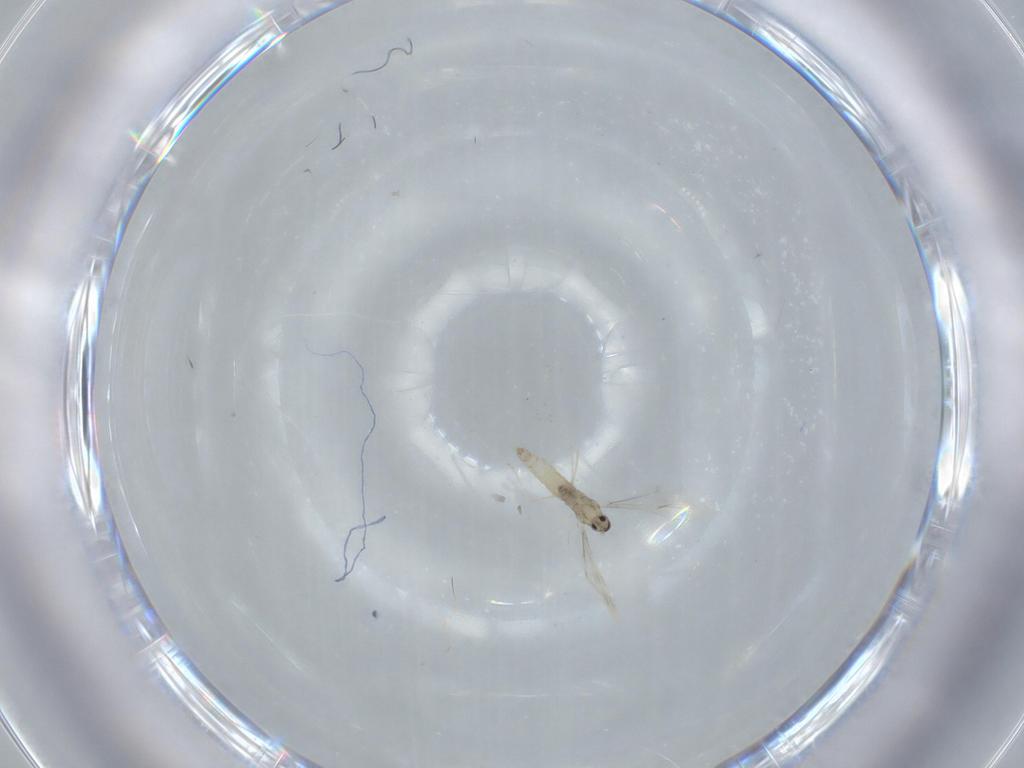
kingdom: Animalia
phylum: Arthropoda
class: Insecta
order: Diptera
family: Cecidomyiidae
